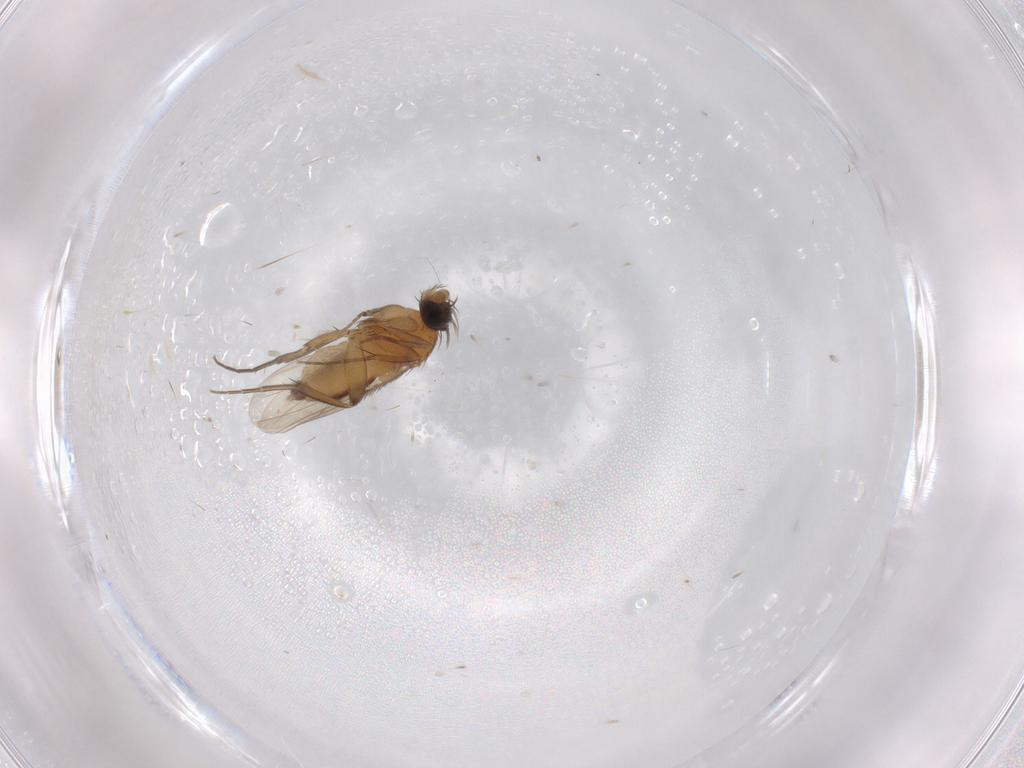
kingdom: Animalia
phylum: Arthropoda
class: Insecta
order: Diptera
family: Phoridae
